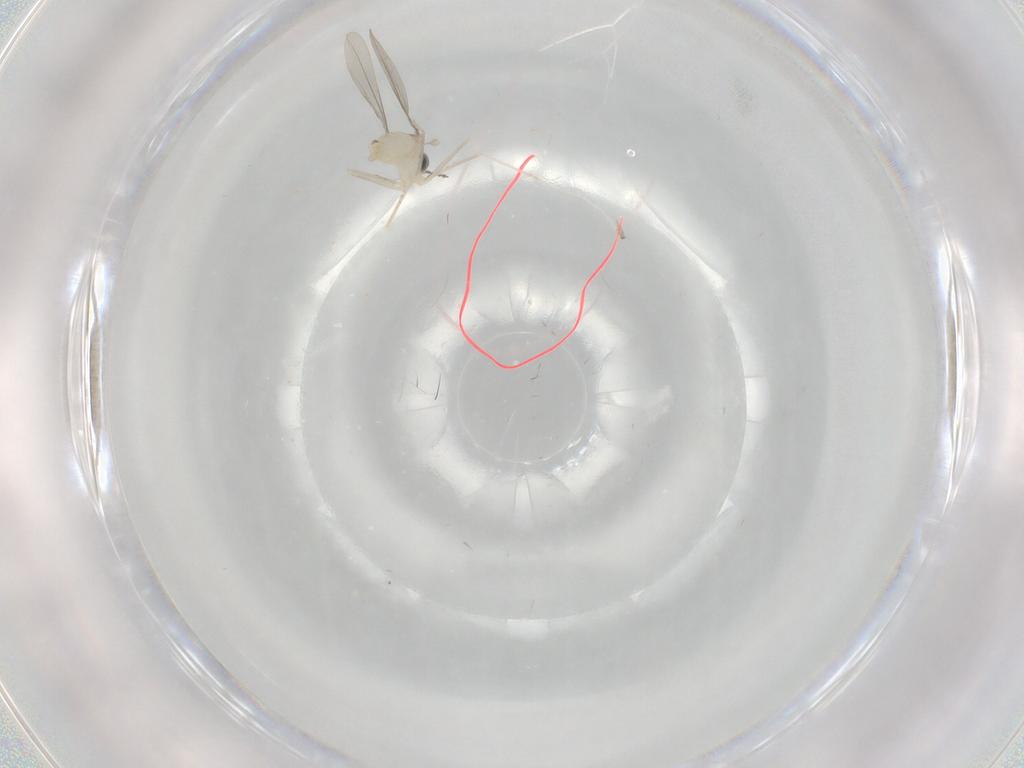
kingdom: Animalia
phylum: Arthropoda
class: Insecta
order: Diptera
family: Cecidomyiidae
